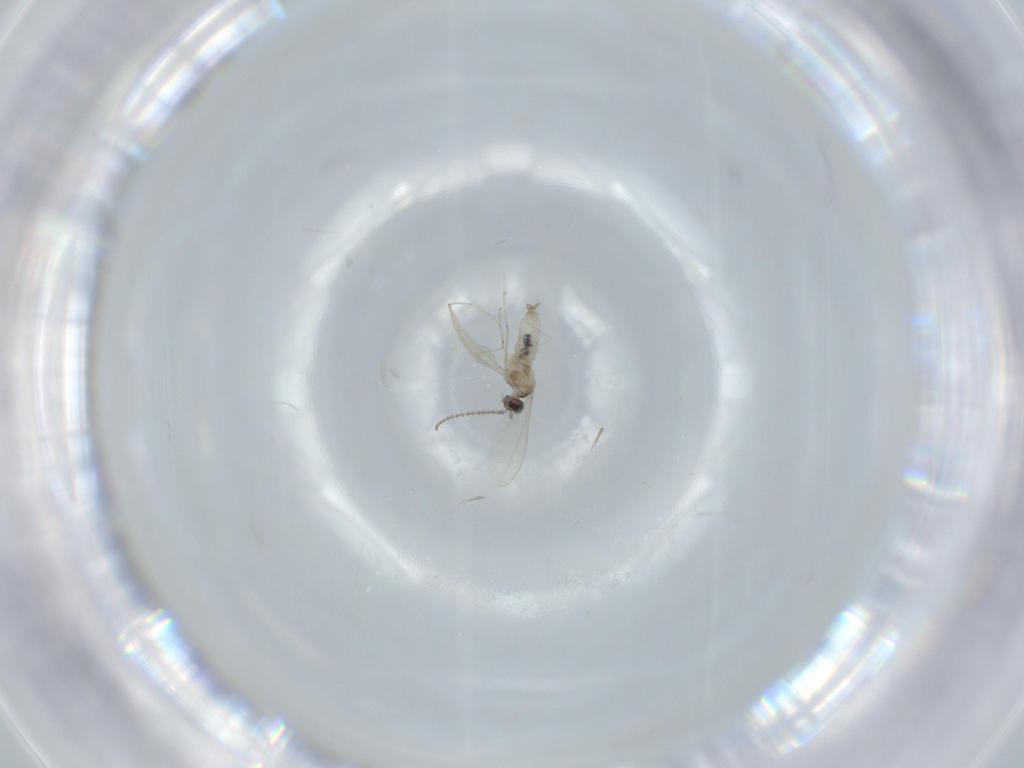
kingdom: Animalia
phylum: Arthropoda
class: Insecta
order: Diptera
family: Cecidomyiidae
